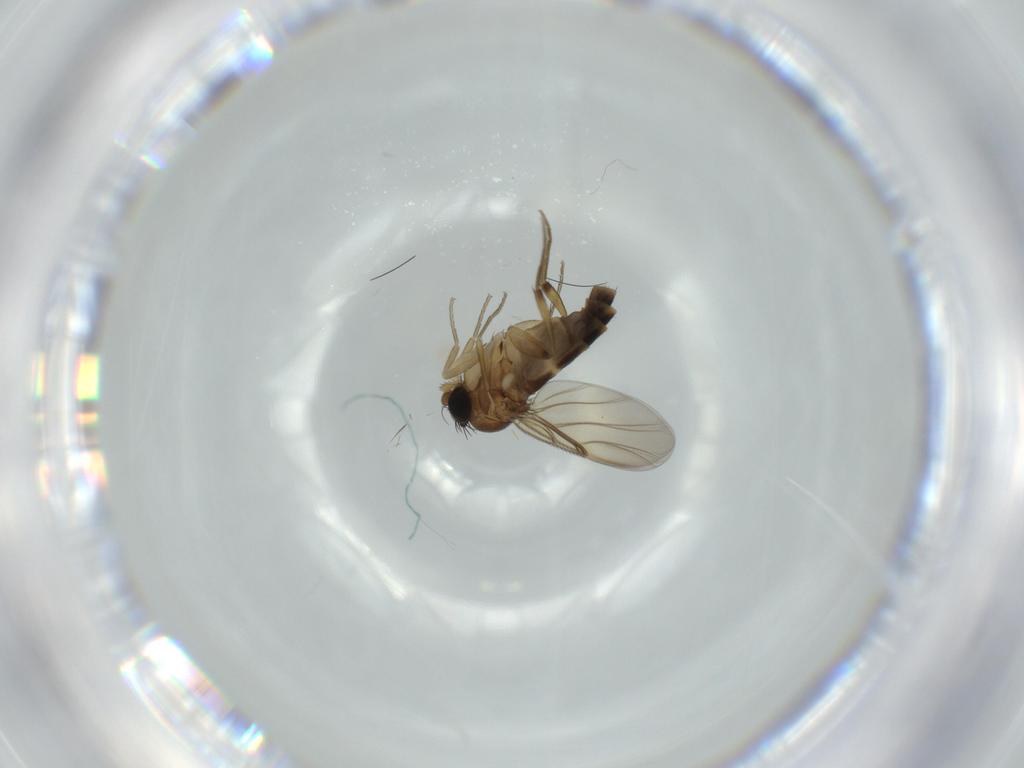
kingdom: Animalia
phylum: Arthropoda
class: Insecta
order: Diptera
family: Phoridae
